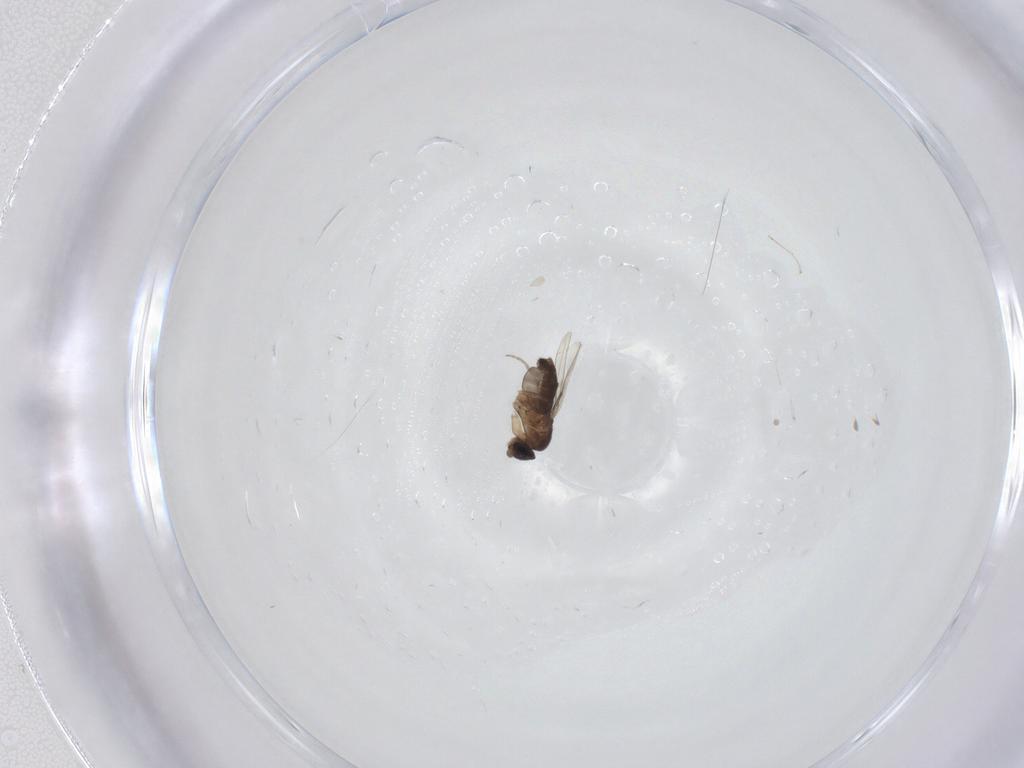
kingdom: Animalia
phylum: Arthropoda
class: Insecta
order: Diptera
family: Phoridae
